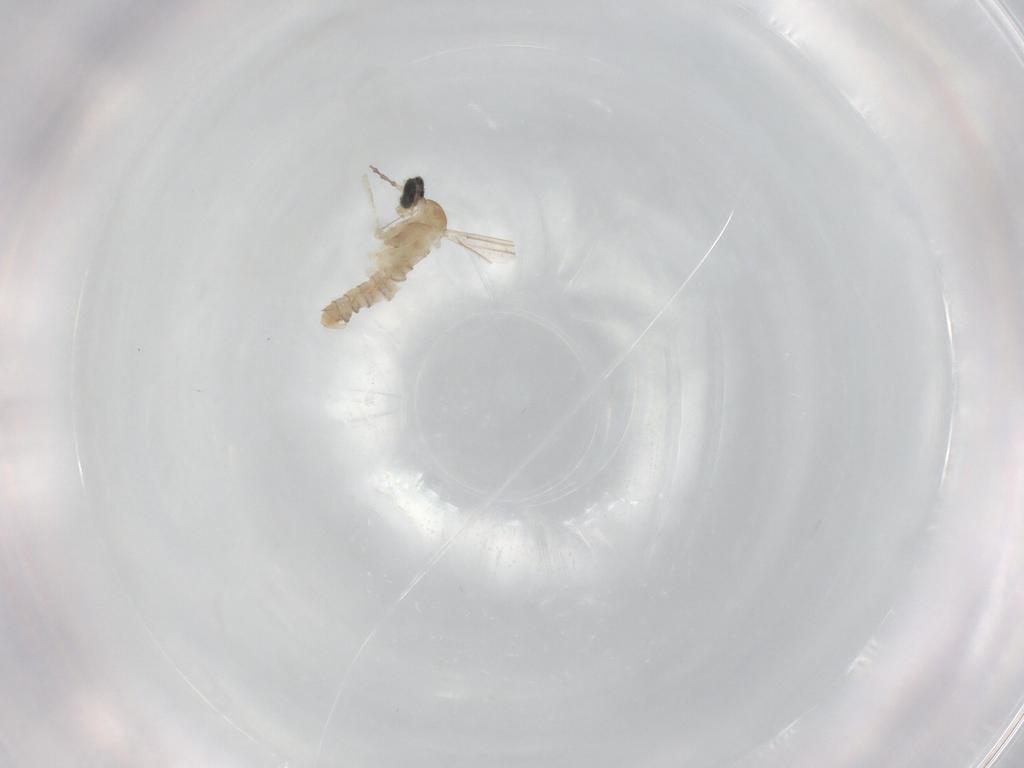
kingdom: Animalia
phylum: Arthropoda
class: Insecta
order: Diptera
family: Cecidomyiidae
